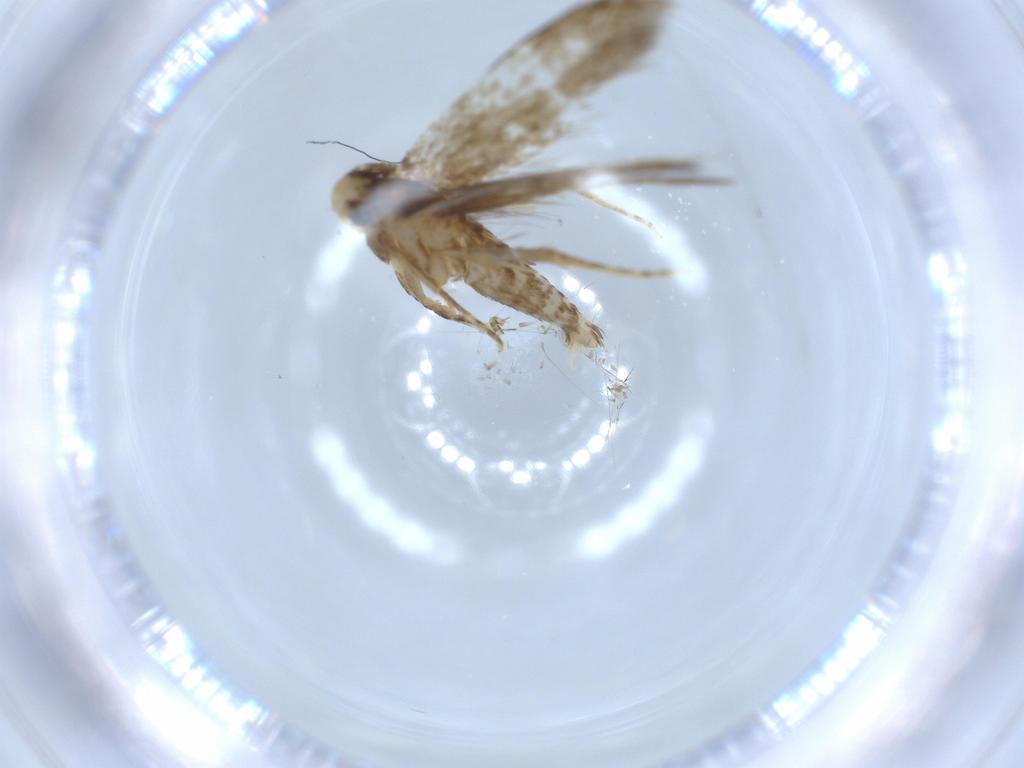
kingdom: Animalia
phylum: Arthropoda
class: Insecta
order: Lepidoptera
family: Tineidae
